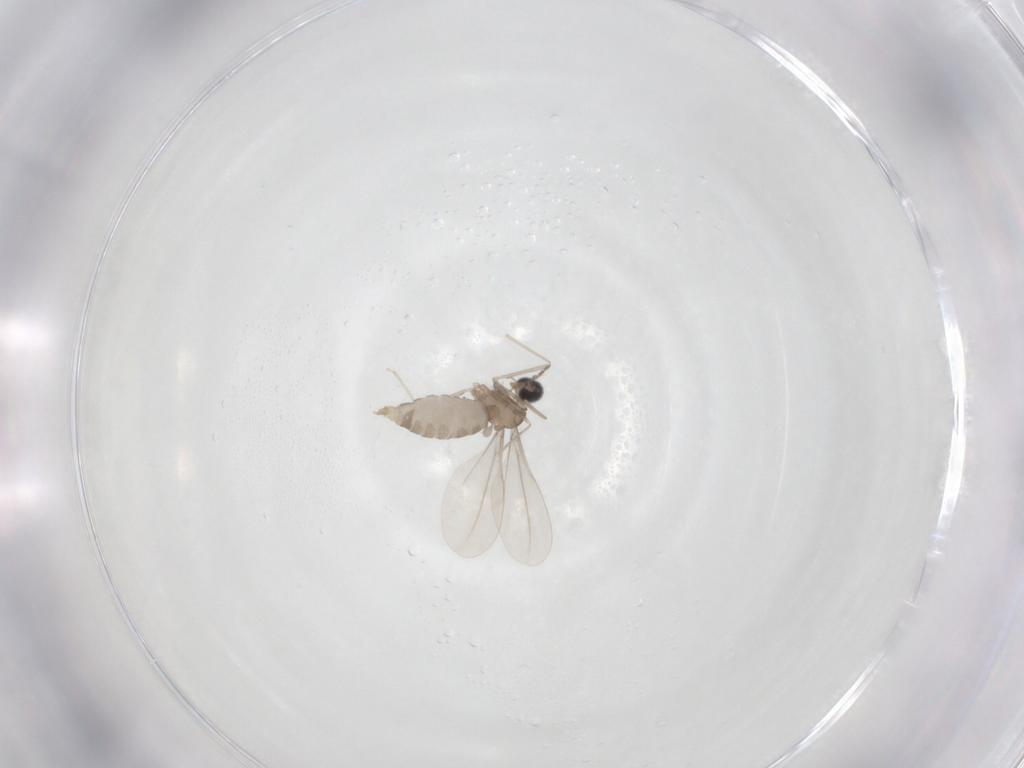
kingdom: Animalia
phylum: Arthropoda
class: Insecta
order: Diptera
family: Cecidomyiidae
